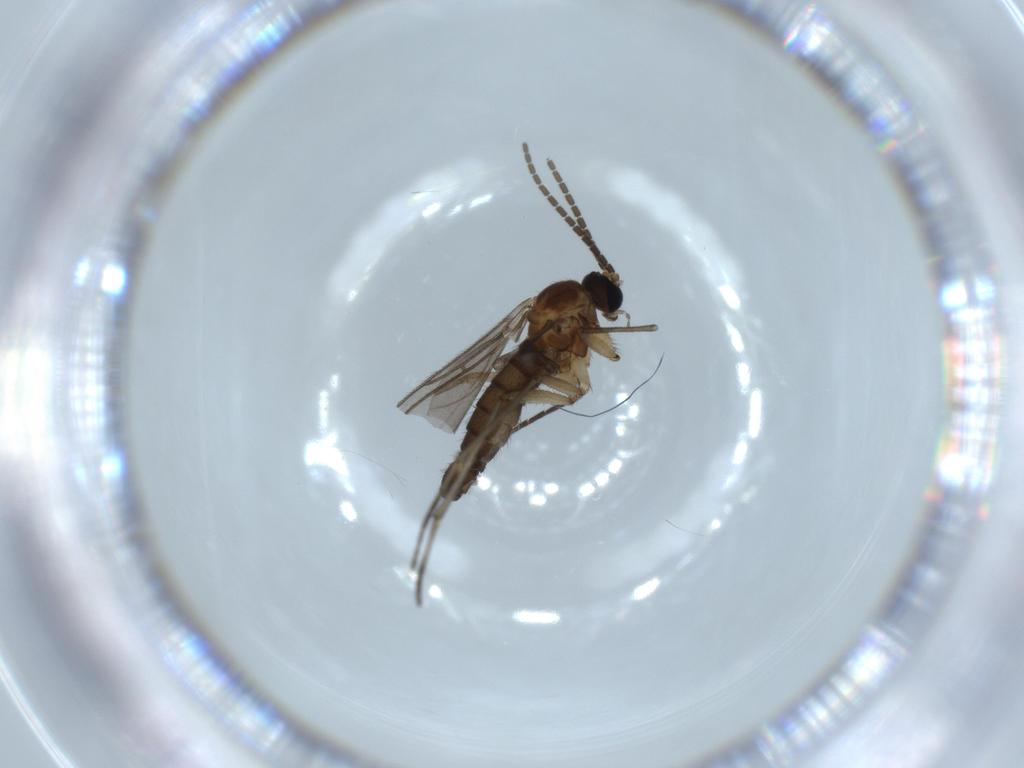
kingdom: Animalia
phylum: Arthropoda
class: Insecta
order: Diptera
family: Sciaridae
